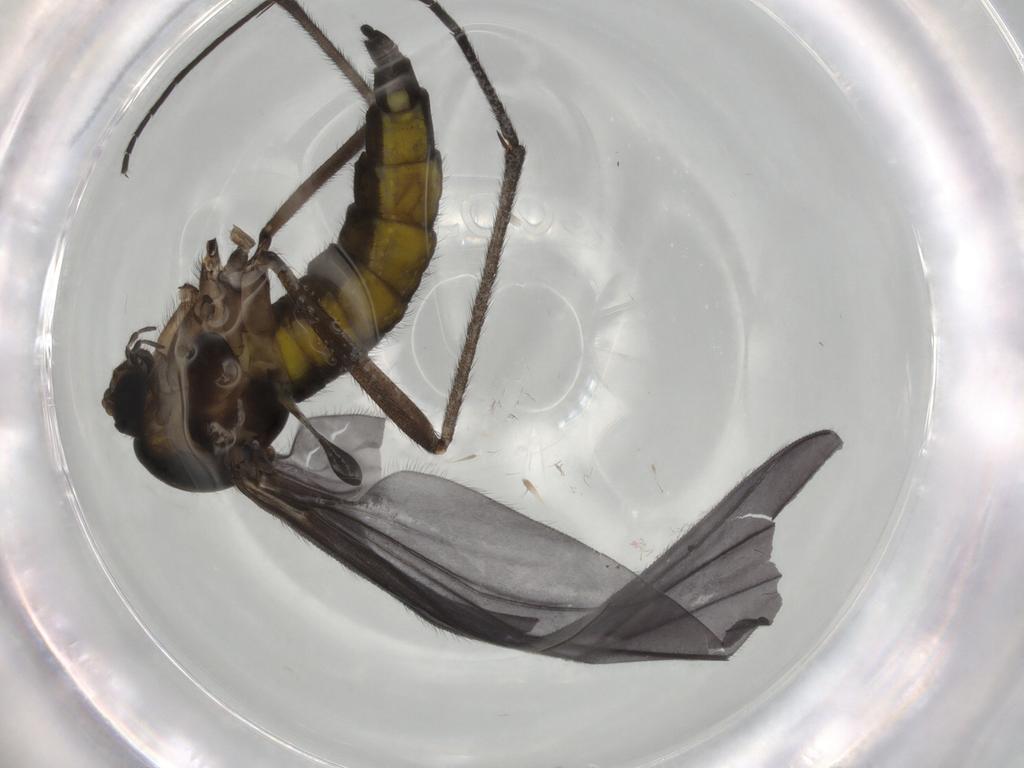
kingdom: Animalia
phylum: Arthropoda
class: Insecta
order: Diptera
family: Sciaridae
